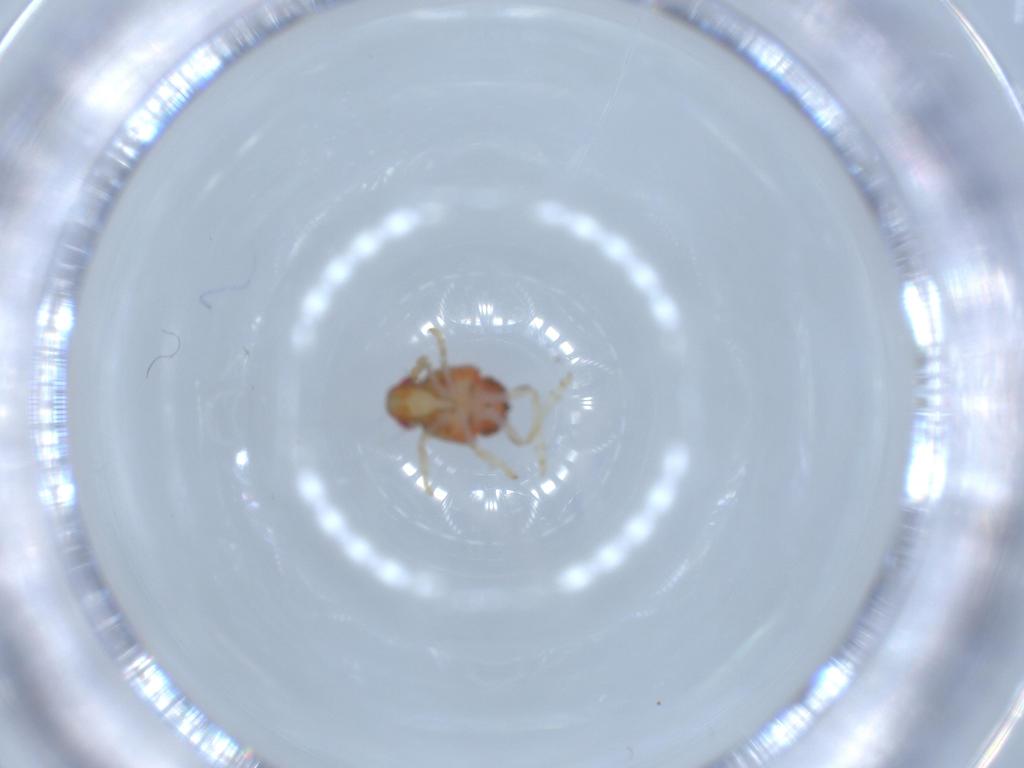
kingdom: Animalia
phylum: Arthropoda
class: Insecta
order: Hemiptera
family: Issidae
